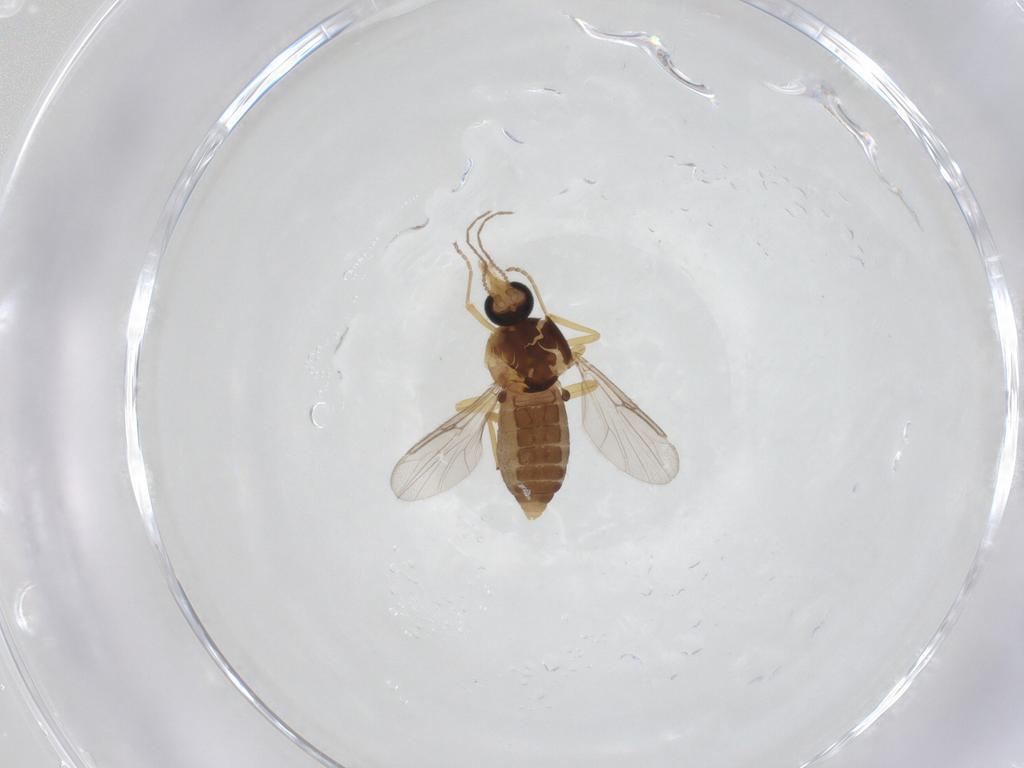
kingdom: Animalia
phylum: Arthropoda
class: Insecta
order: Diptera
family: Ceratopogonidae
